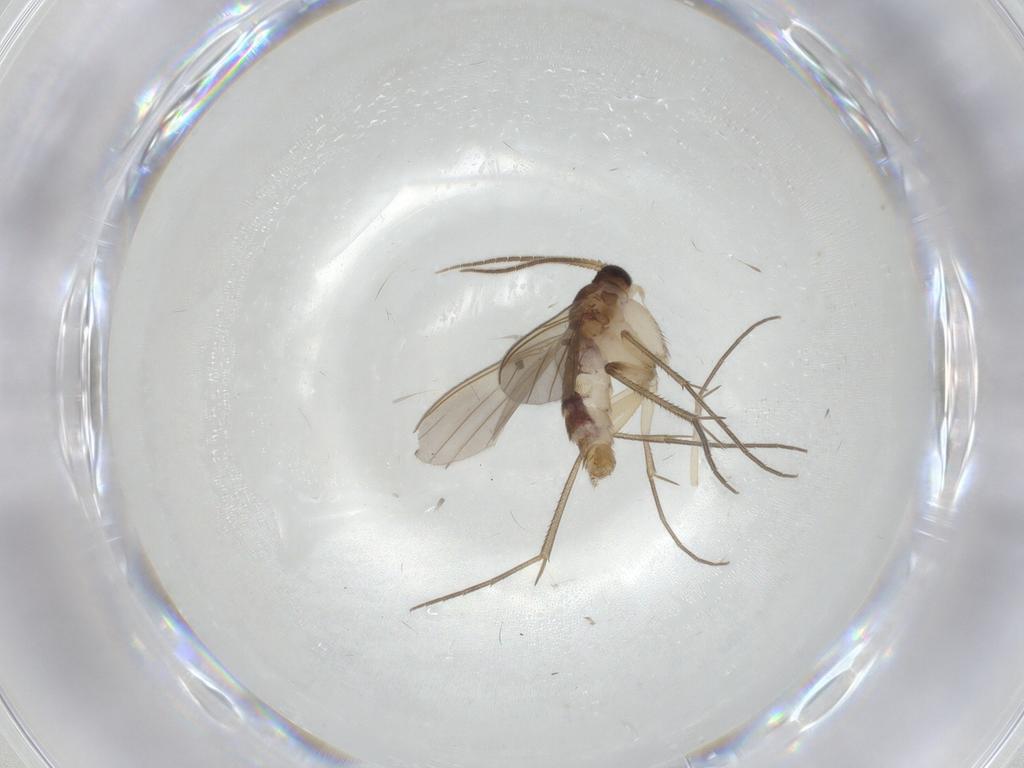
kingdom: Animalia
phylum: Arthropoda
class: Insecta
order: Diptera
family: Mycetophilidae
